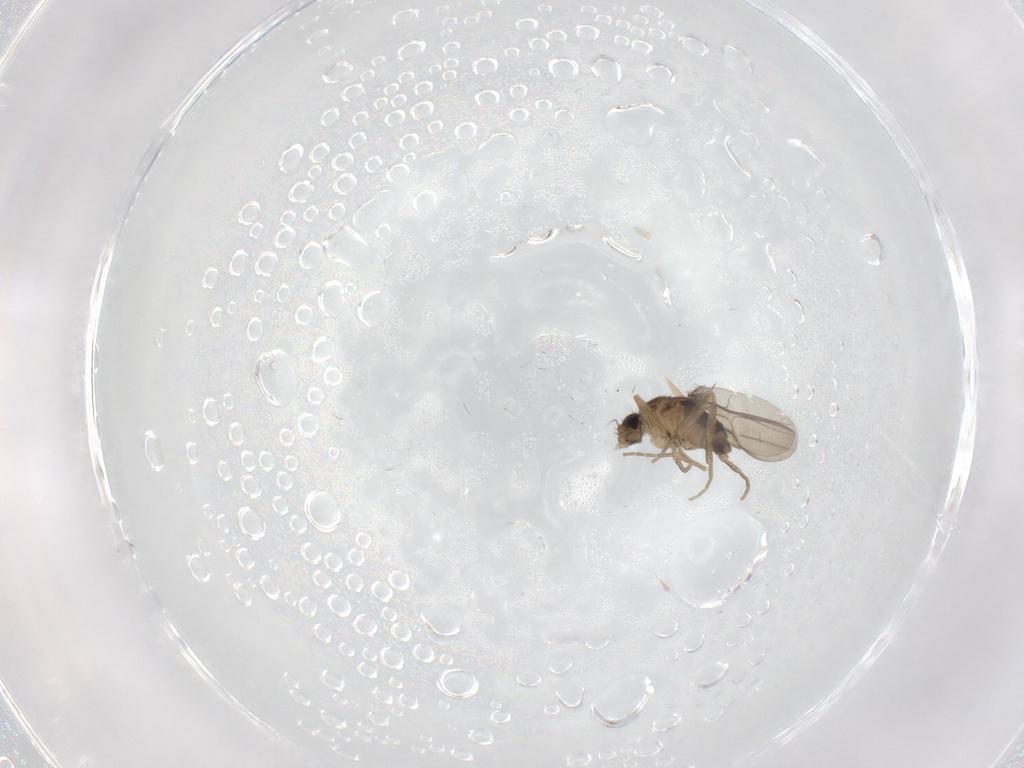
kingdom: Animalia
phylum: Arthropoda
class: Insecta
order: Diptera
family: Phoridae
